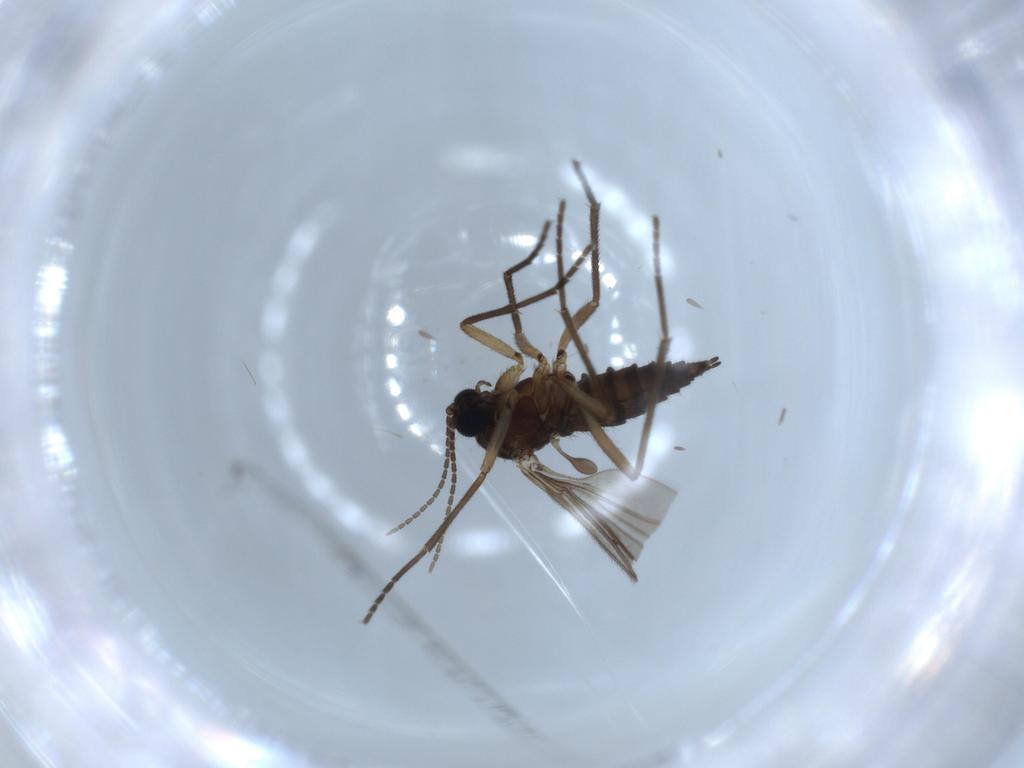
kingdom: Animalia
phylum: Arthropoda
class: Insecta
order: Diptera
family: Sciaridae
